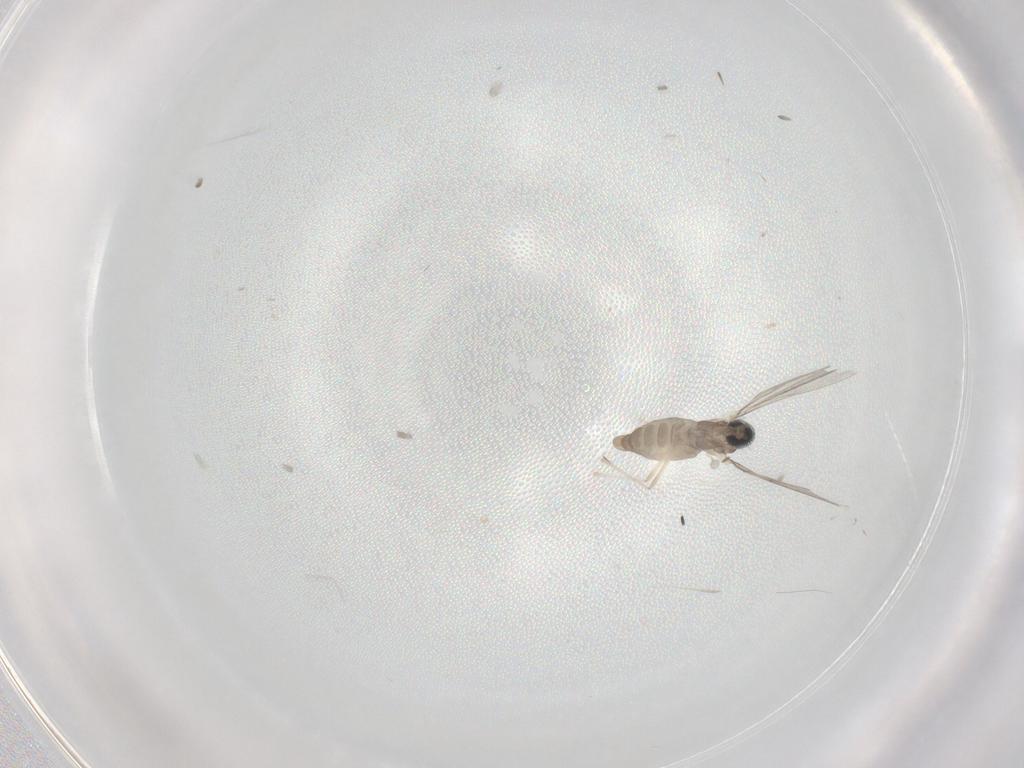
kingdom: Animalia
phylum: Arthropoda
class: Insecta
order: Diptera
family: Cecidomyiidae
